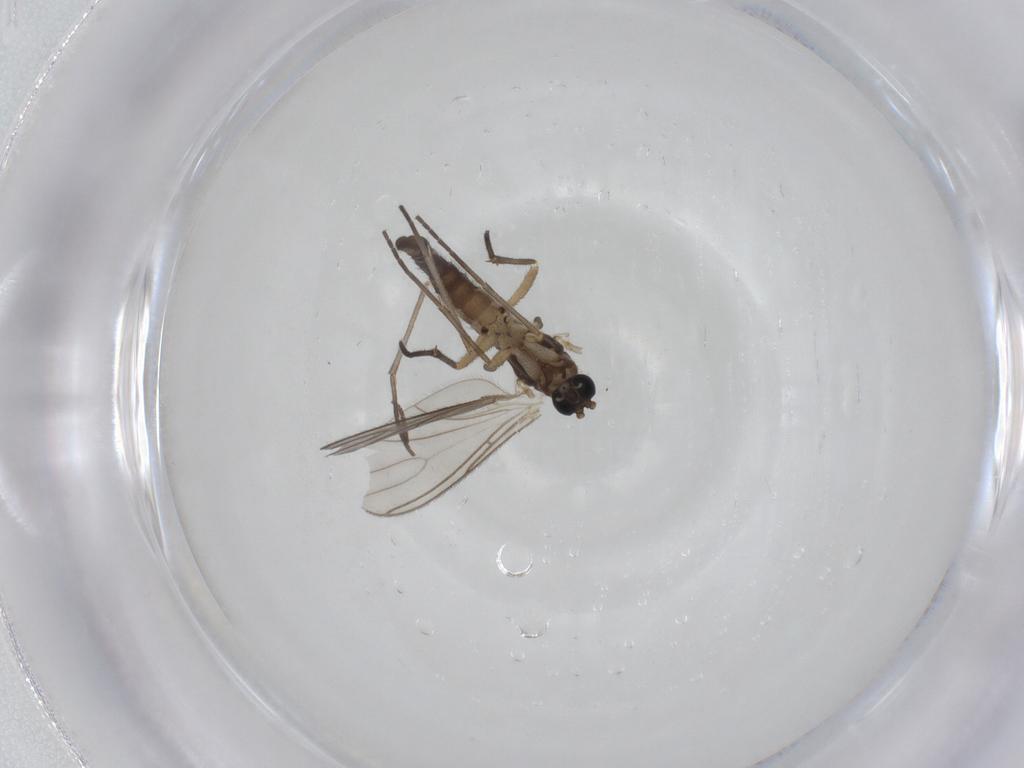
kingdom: Animalia
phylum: Arthropoda
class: Insecta
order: Diptera
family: Sciaridae
